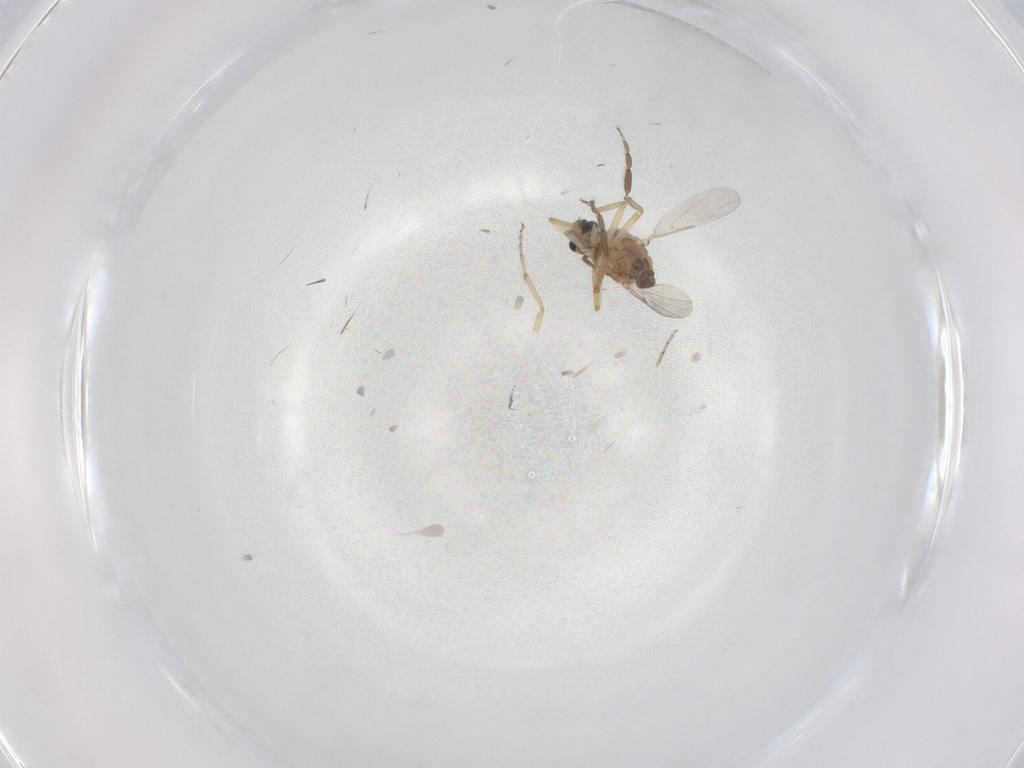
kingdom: Animalia
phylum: Arthropoda
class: Insecta
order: Diptera
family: Ceratopogonidae
